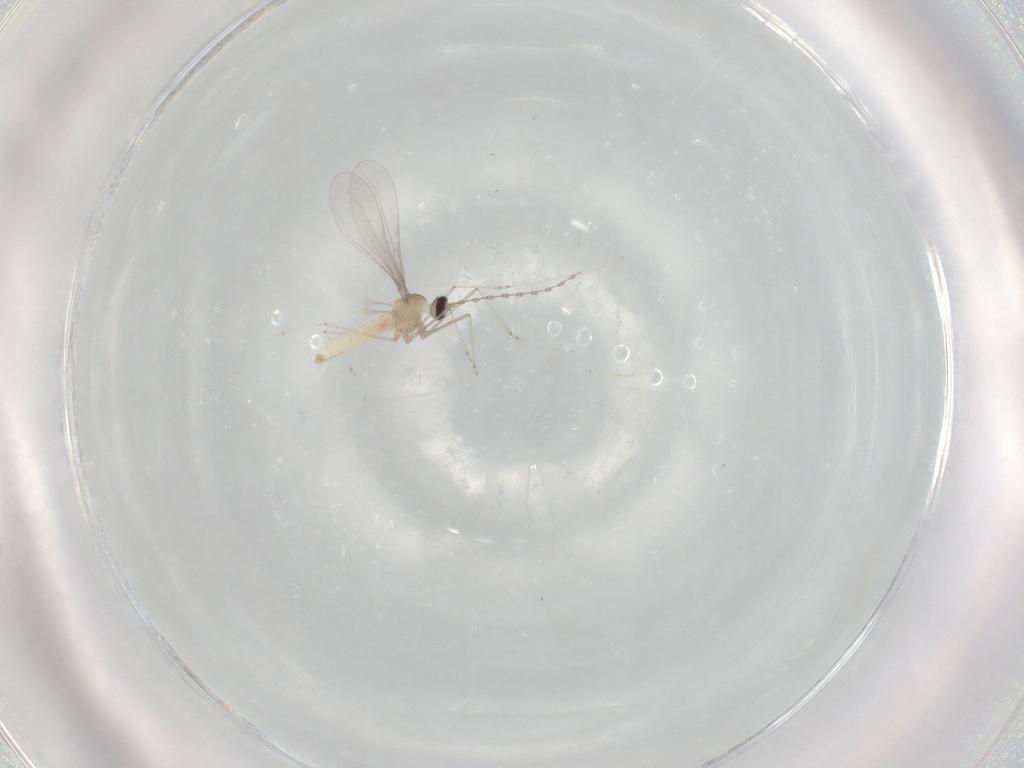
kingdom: Animalia
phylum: Arthropoda
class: Insecta
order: Diptera
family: Cecidomyiidae
